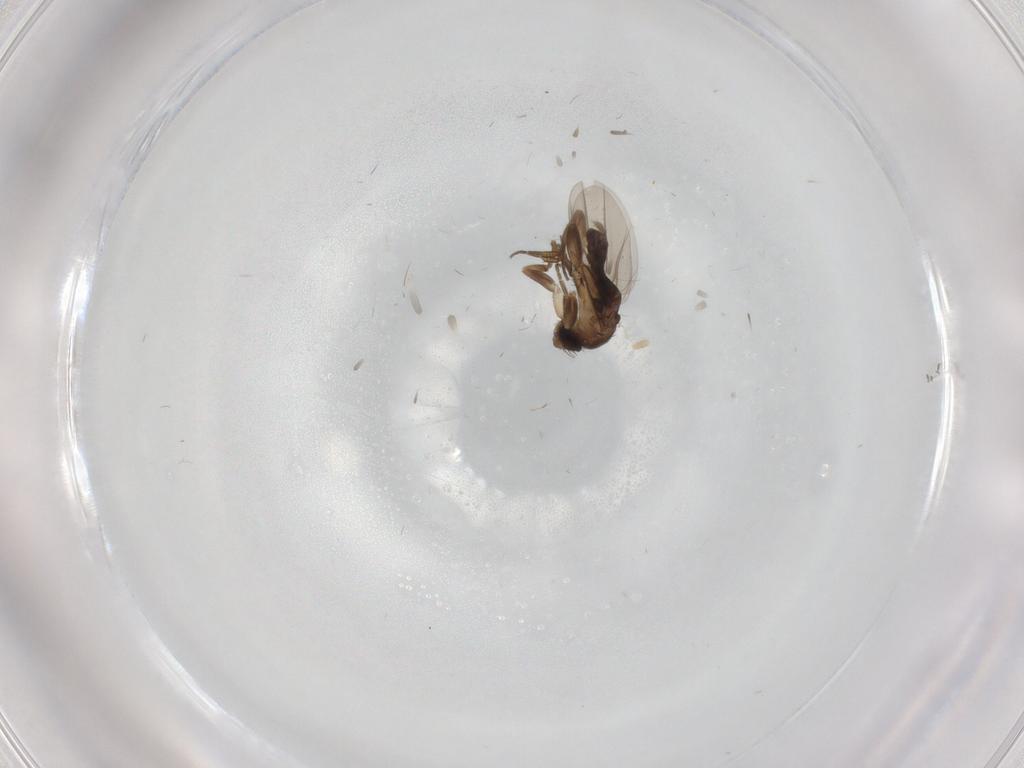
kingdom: Animalia
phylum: Arthropoda
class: Insecta
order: Diptera
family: Phoridae
